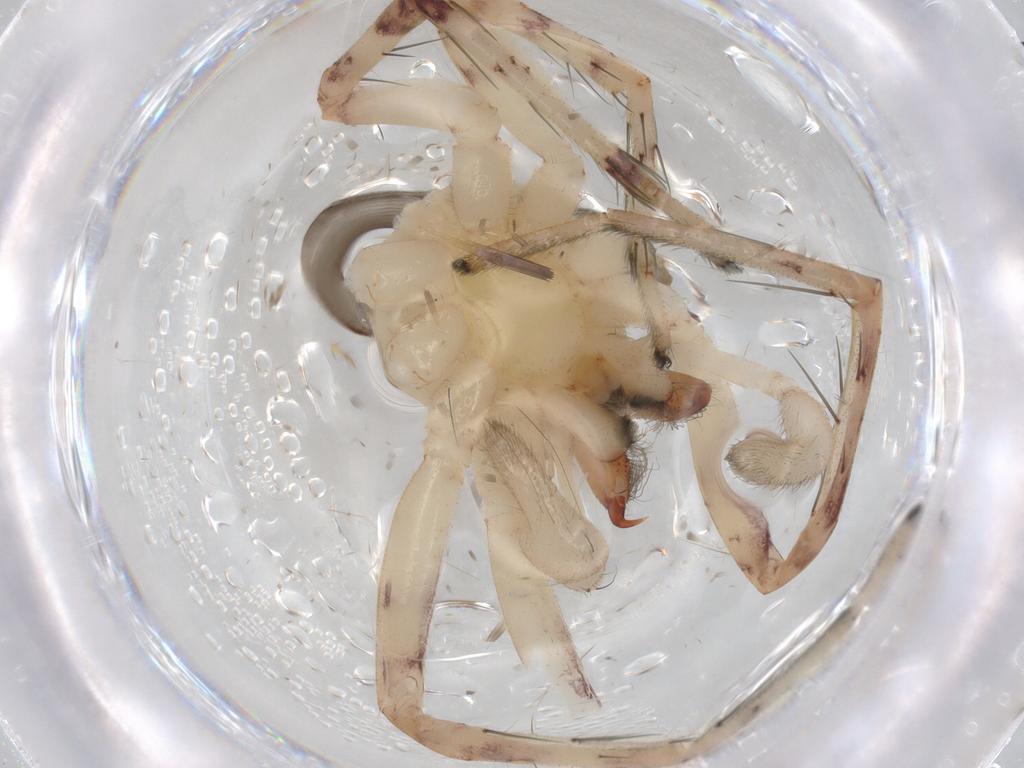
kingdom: Animalia
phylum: Arthropoda
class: Arachnida
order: Araneae
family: Anyphaenidae
